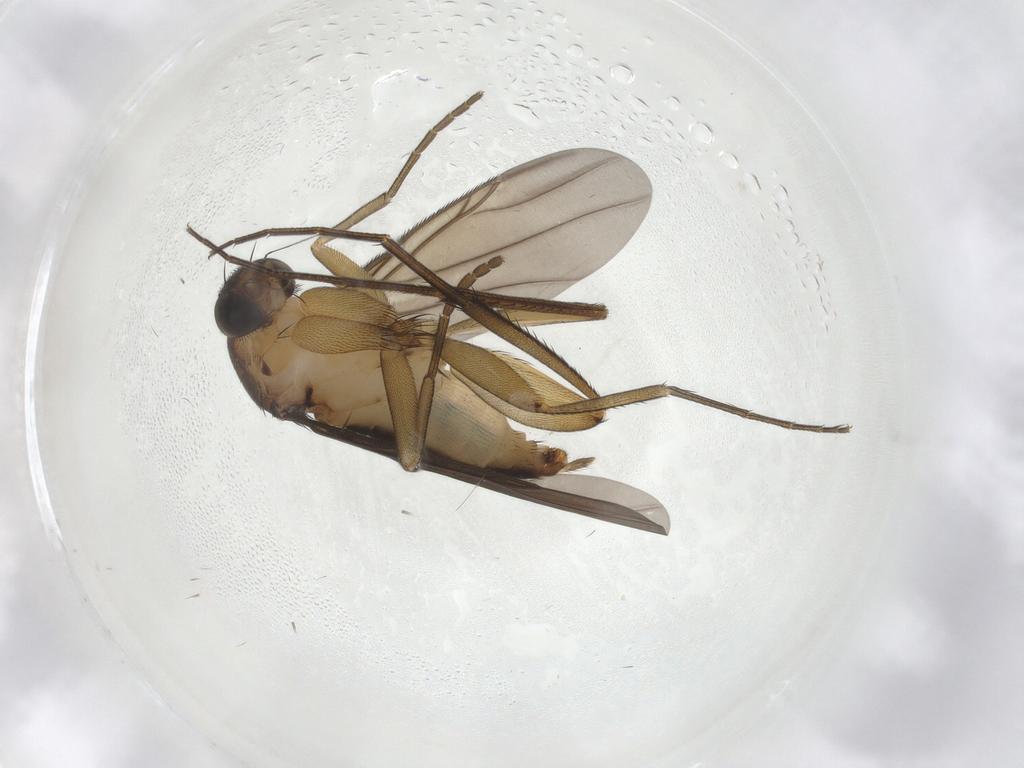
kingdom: Animalia
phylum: Arthropoda
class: Insecta
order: Diptera
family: Phoridae
